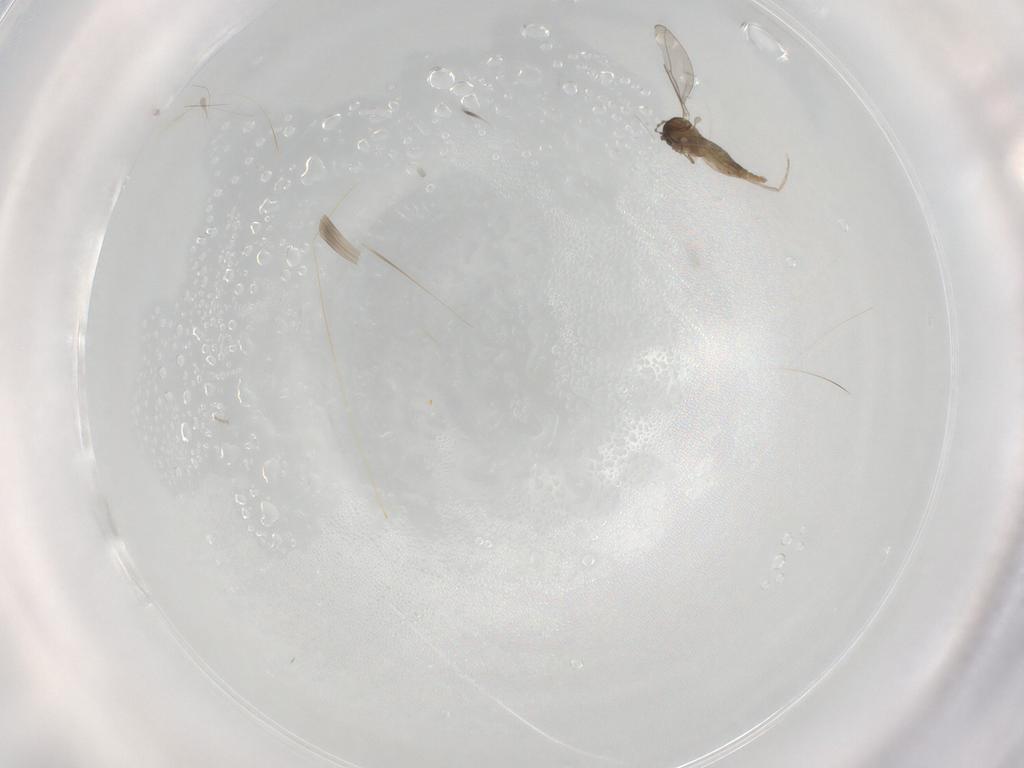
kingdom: Animalia
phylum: Arthropoda
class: Insecta
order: Diptera
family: Cecidomyiidae
